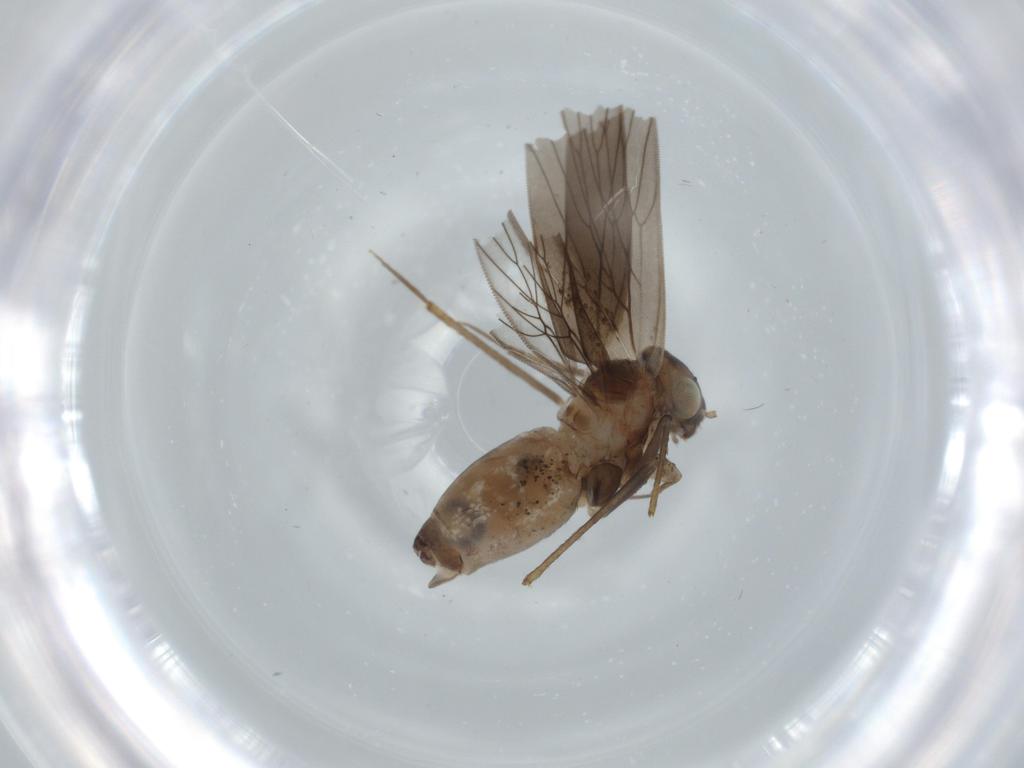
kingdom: Animalia
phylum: Arthropoda
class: Insecta
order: Psocodea
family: Lepidopsocidae
